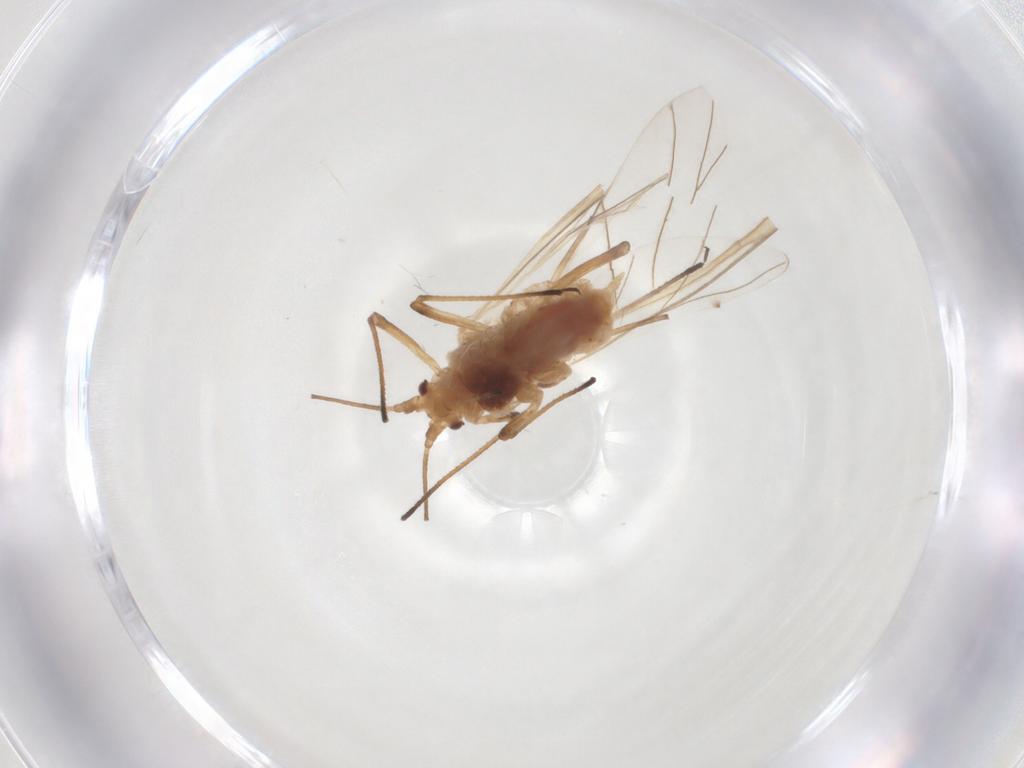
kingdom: Animalia
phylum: Arthropoda
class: Insecta
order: Hemiptera
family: Aphididae
